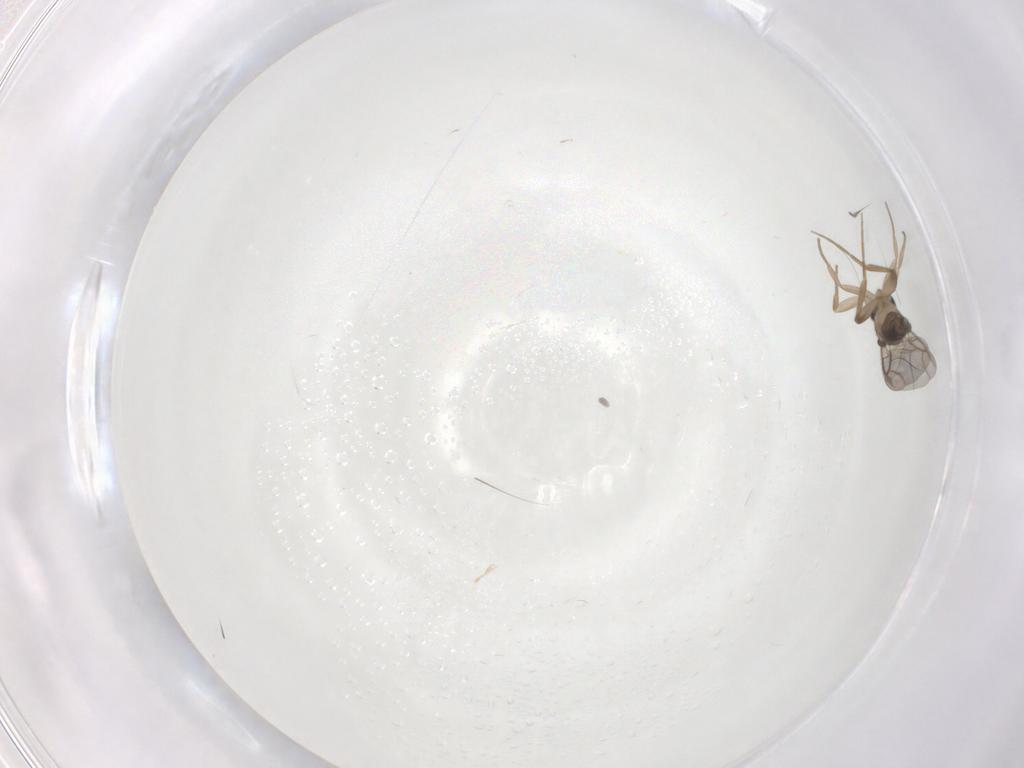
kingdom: Animalia
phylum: Arthropoda
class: Insecta
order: Diptera
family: Phoridae
